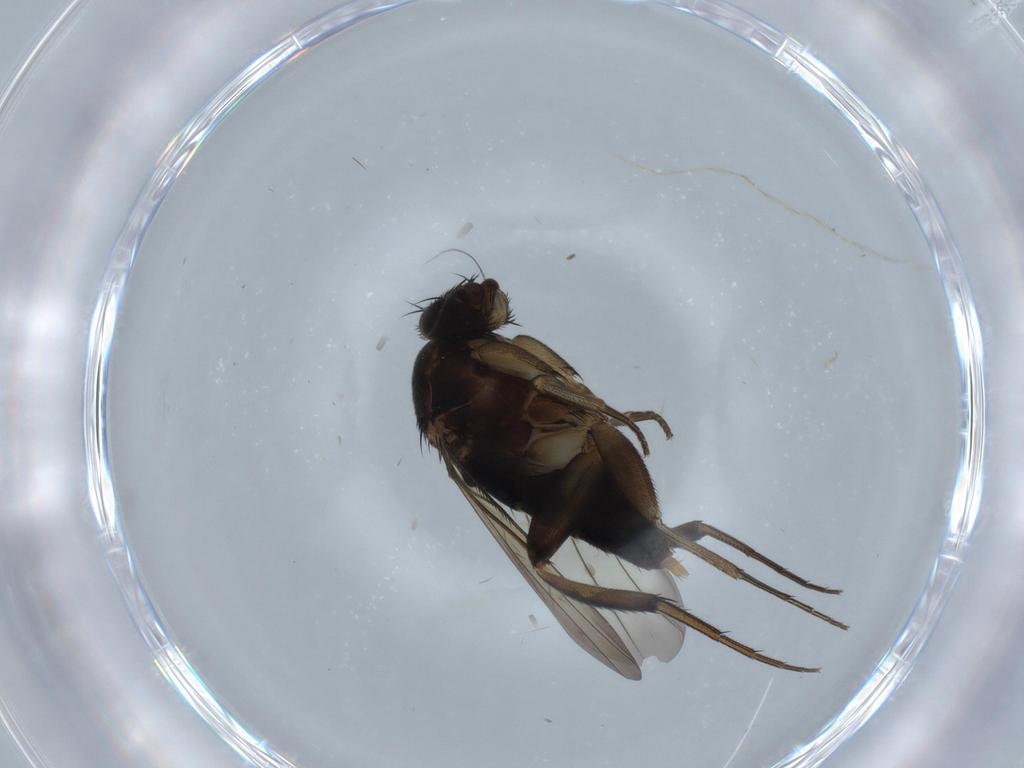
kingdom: Animalia
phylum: Arthropoda
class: Insecta
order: Diptera
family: Phoridae
